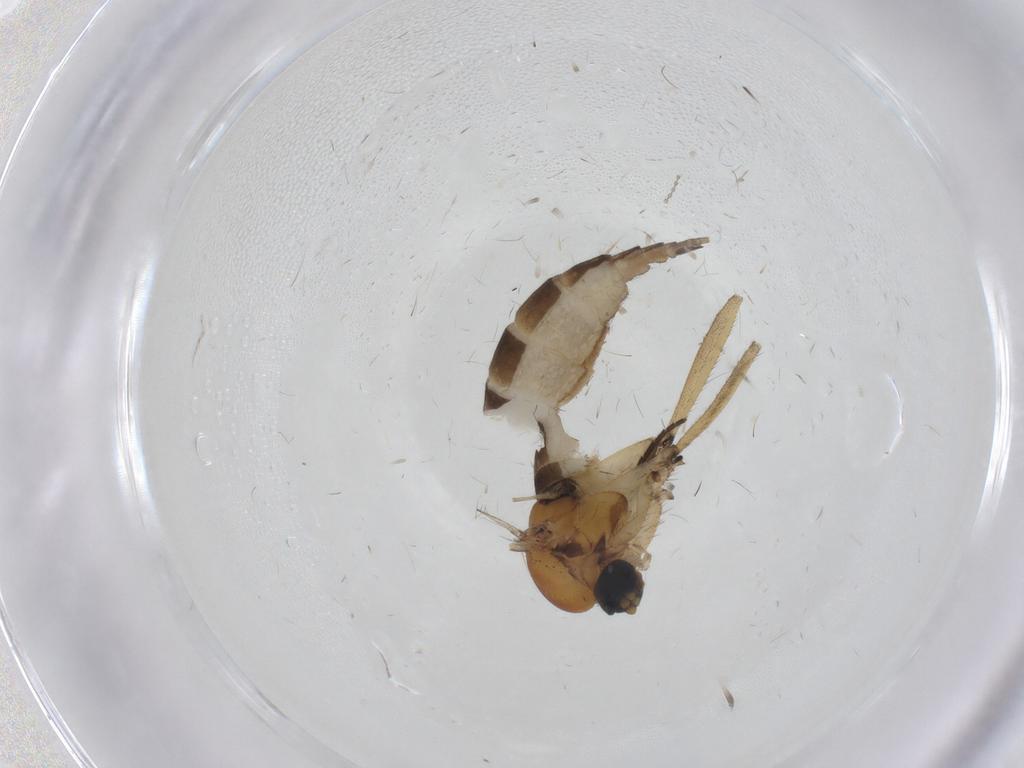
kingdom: Animalia
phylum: Arthropoda
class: Insecta
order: Diptera
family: Sciaridae
